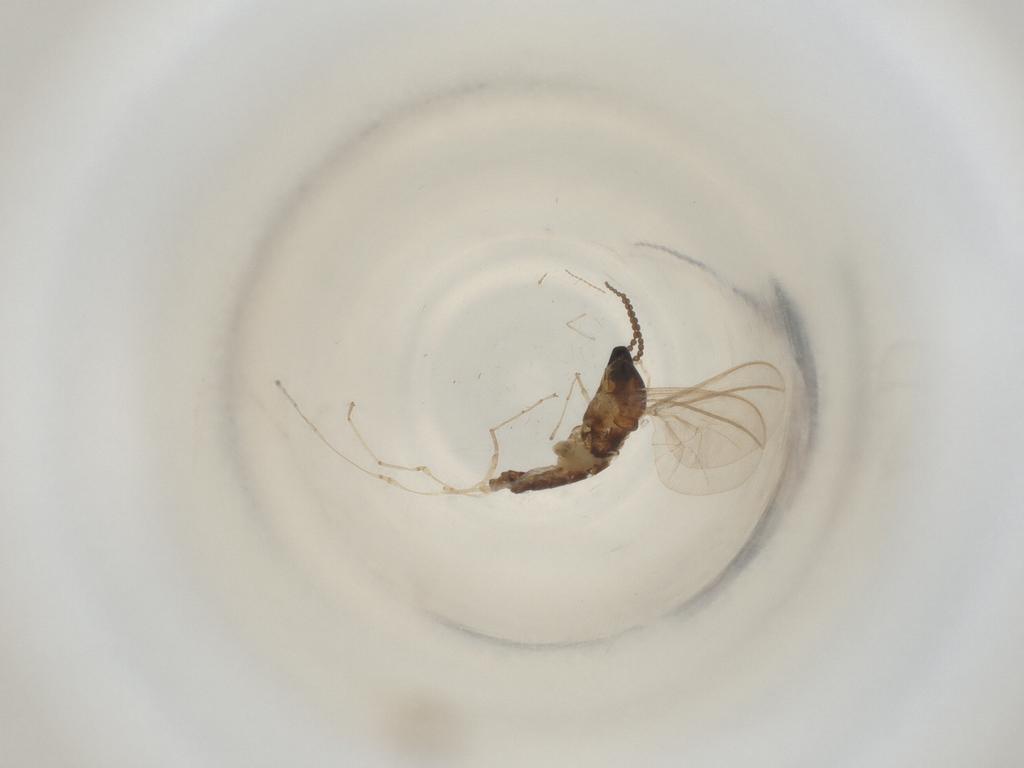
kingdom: Animalia
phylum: Arthropoda
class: Insecta
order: Diptera
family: Cecidomyiidae
